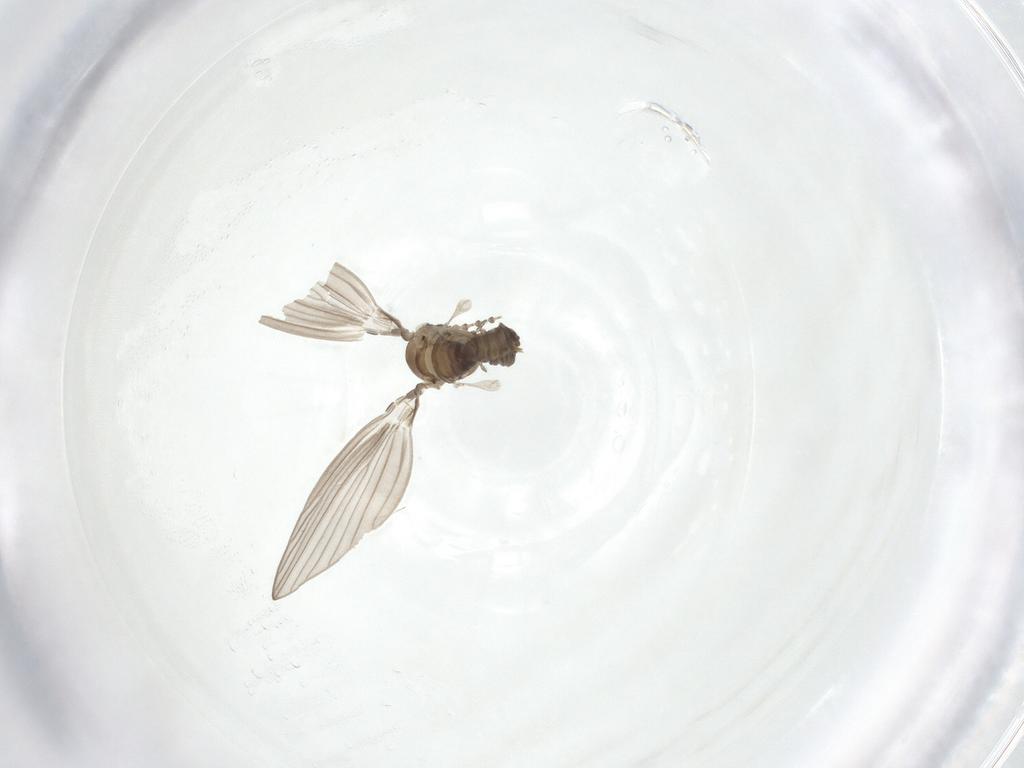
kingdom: Animalia
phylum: Arthropoda
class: Insecta
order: Diptera
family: Psychodidae
